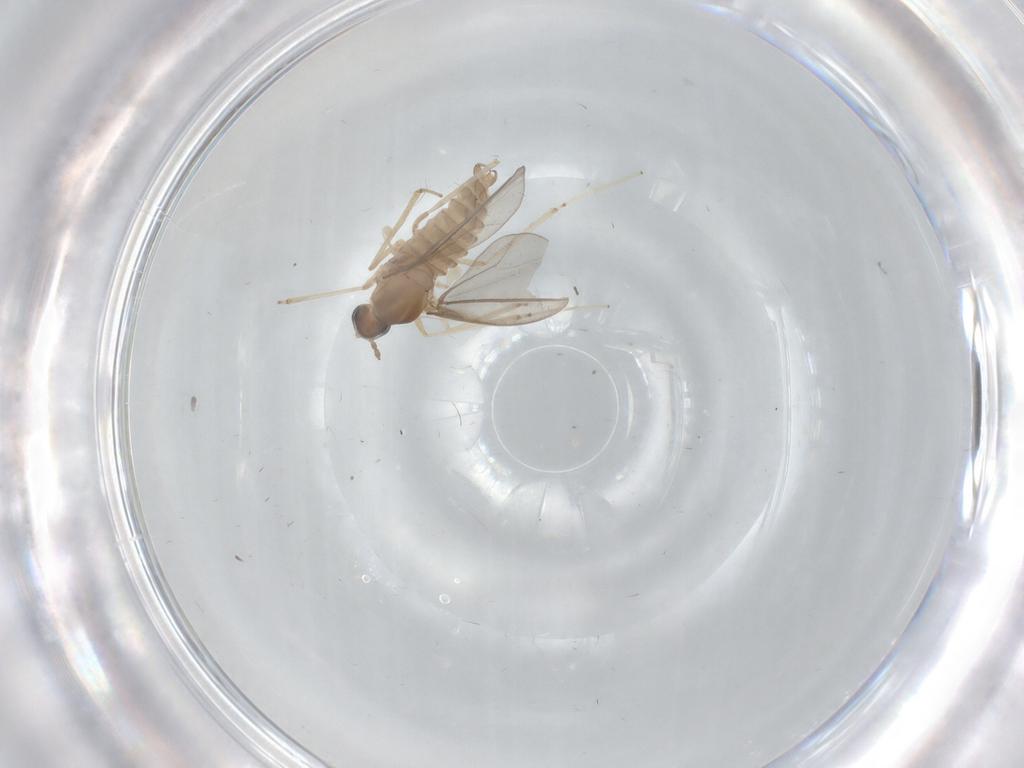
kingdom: Animalia
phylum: Arthropoda
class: Insecta
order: Diptera
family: Cecidomyiidae
